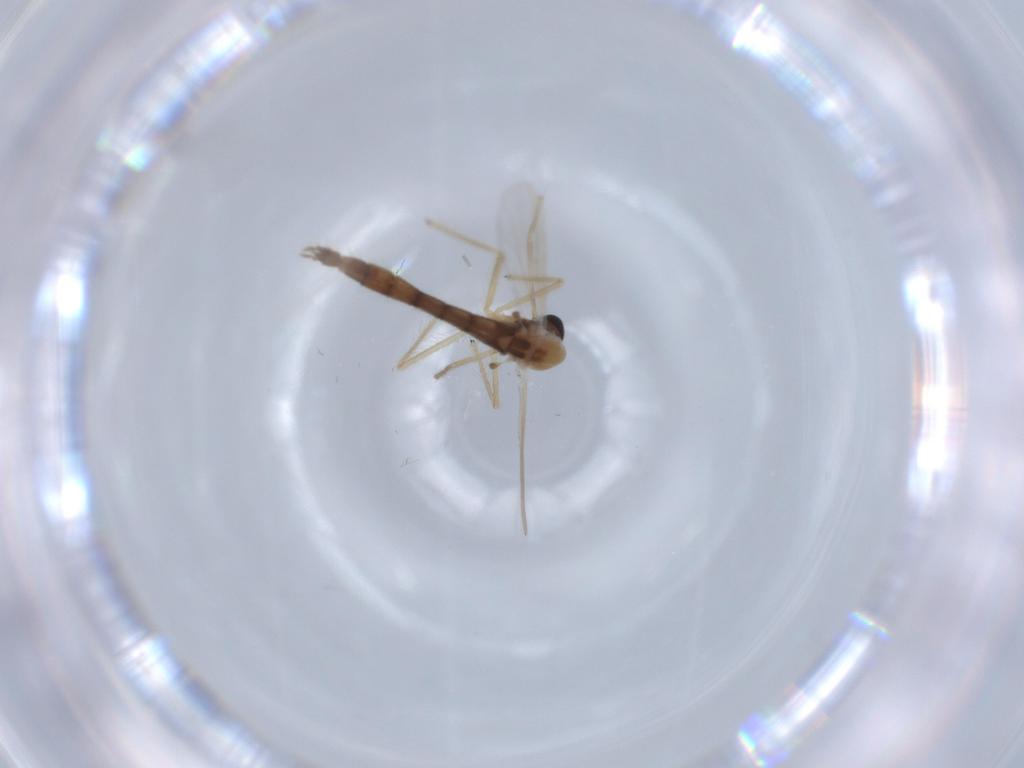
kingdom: Animalia
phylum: Arthropoda
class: Insecta
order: Diptera
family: Chironomidae
